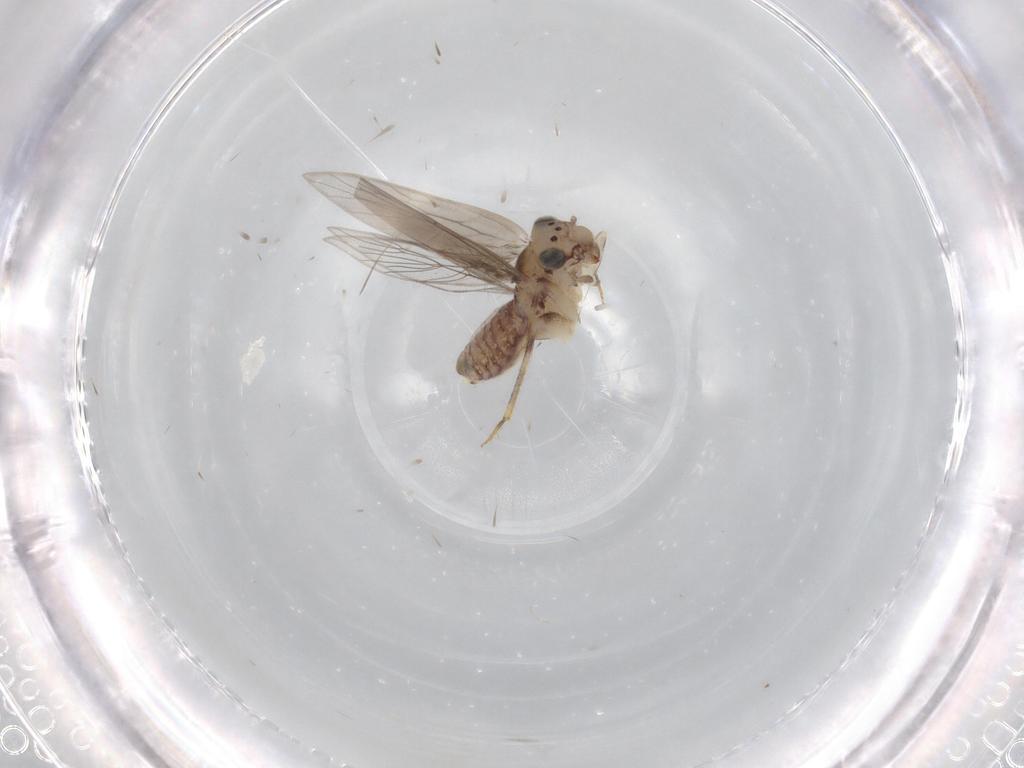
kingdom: Animalia
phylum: Arthropoda
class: Insecta
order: Psocodea
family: Lepidopsocidae
